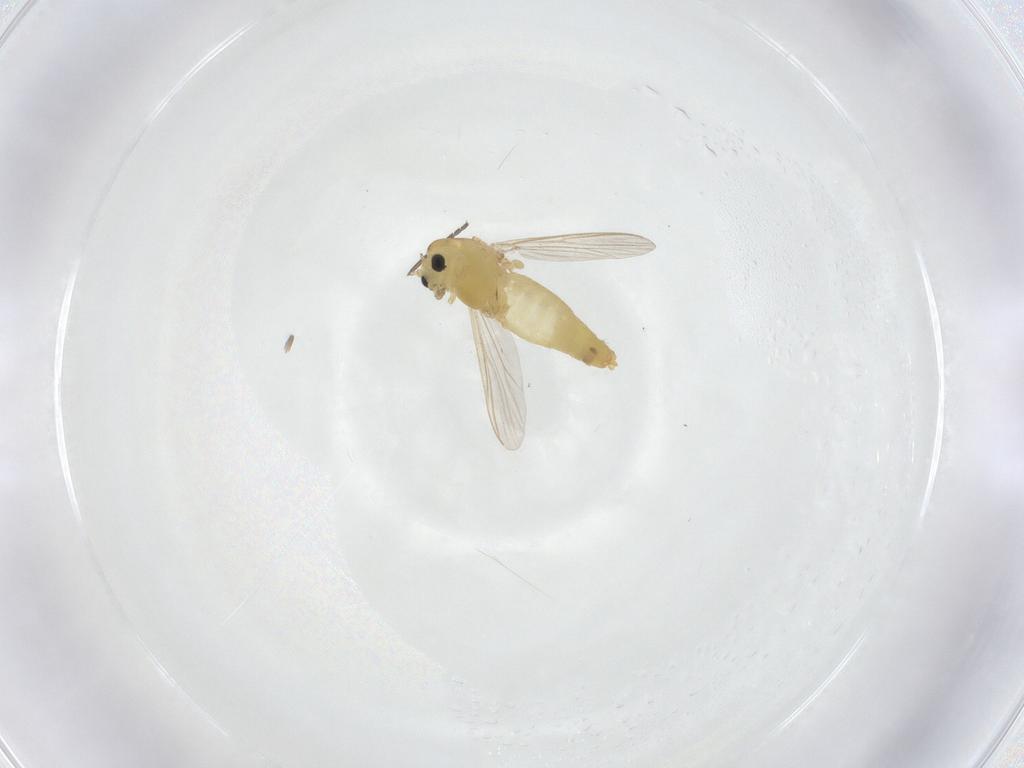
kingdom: Animalia
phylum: Arthropoda
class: Insecta
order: Diptera
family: Chironomidae
